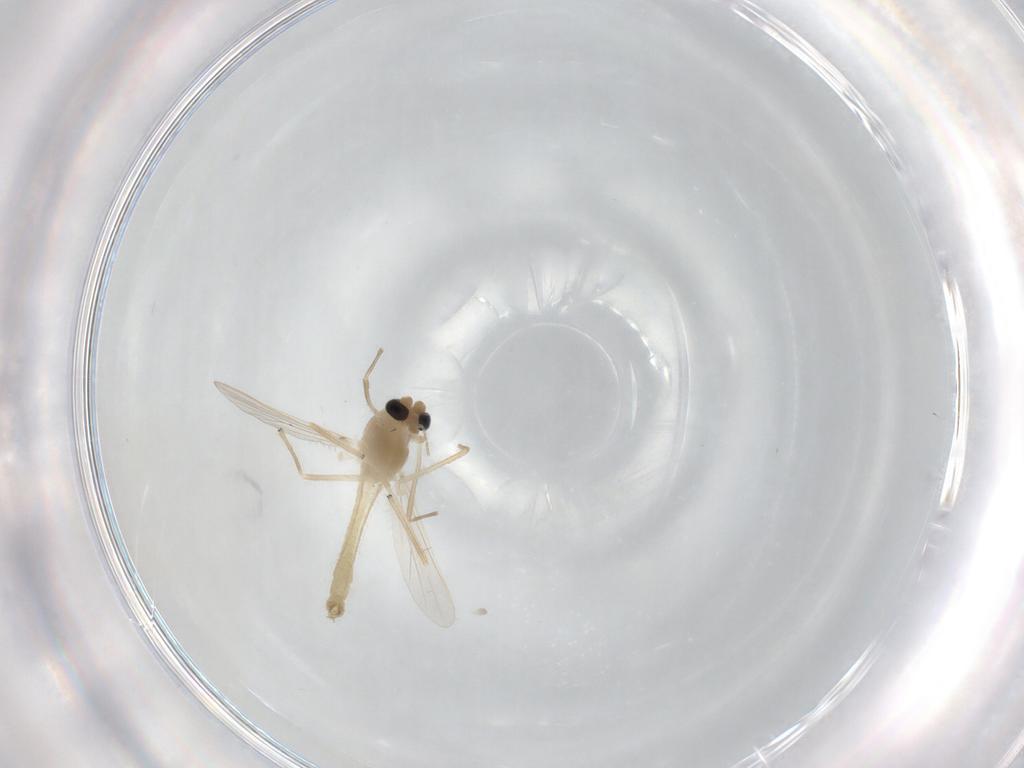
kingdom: Animalia
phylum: Arthropoda
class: Insecta
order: Diptera
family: Chironomidae
